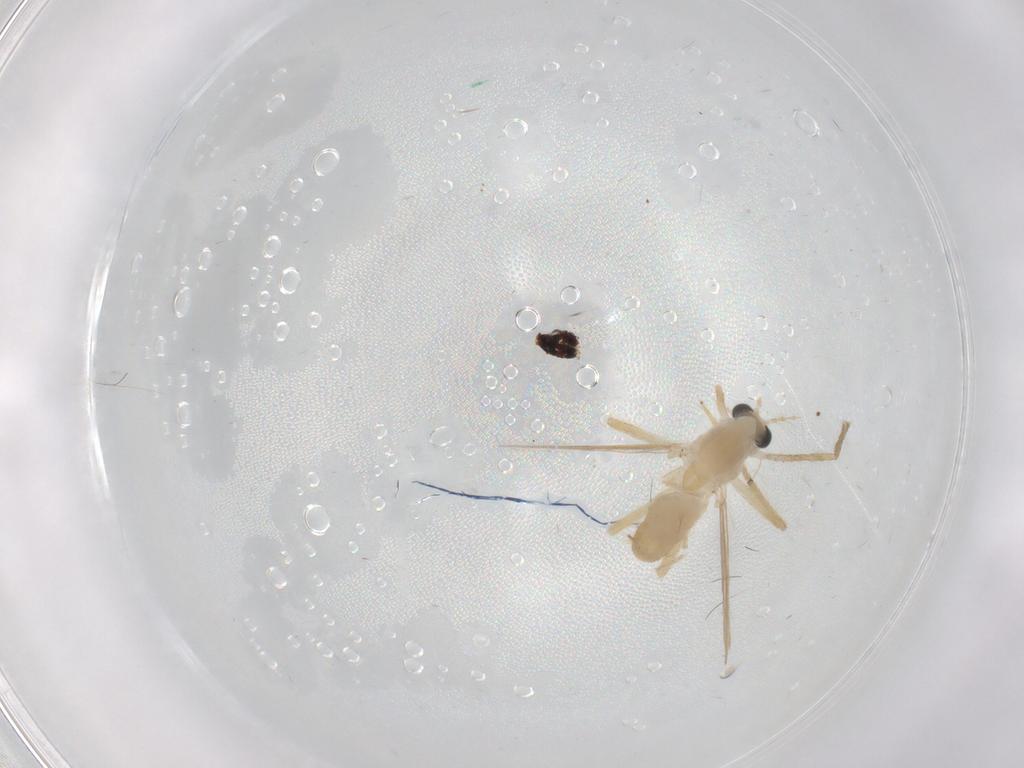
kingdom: Animalia
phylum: Arthropoda
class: Insecta
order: Diptera
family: Chironomidae
